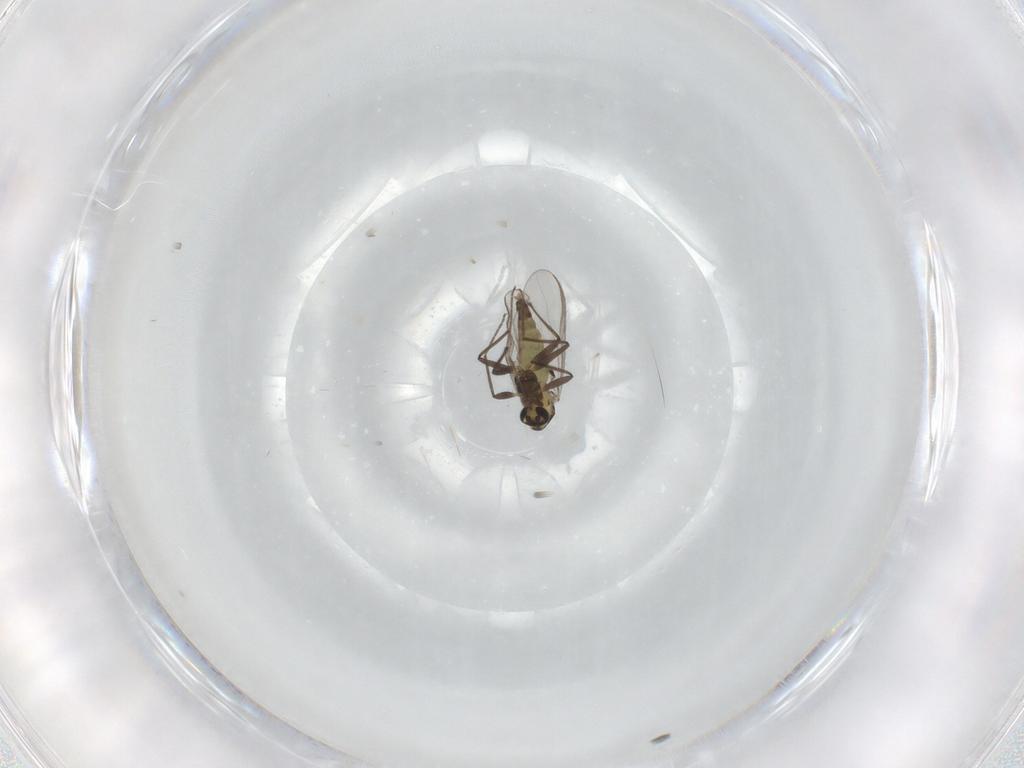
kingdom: Animalia
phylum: Arthropoda
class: Insecta
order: Diptera
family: Chironomidae
